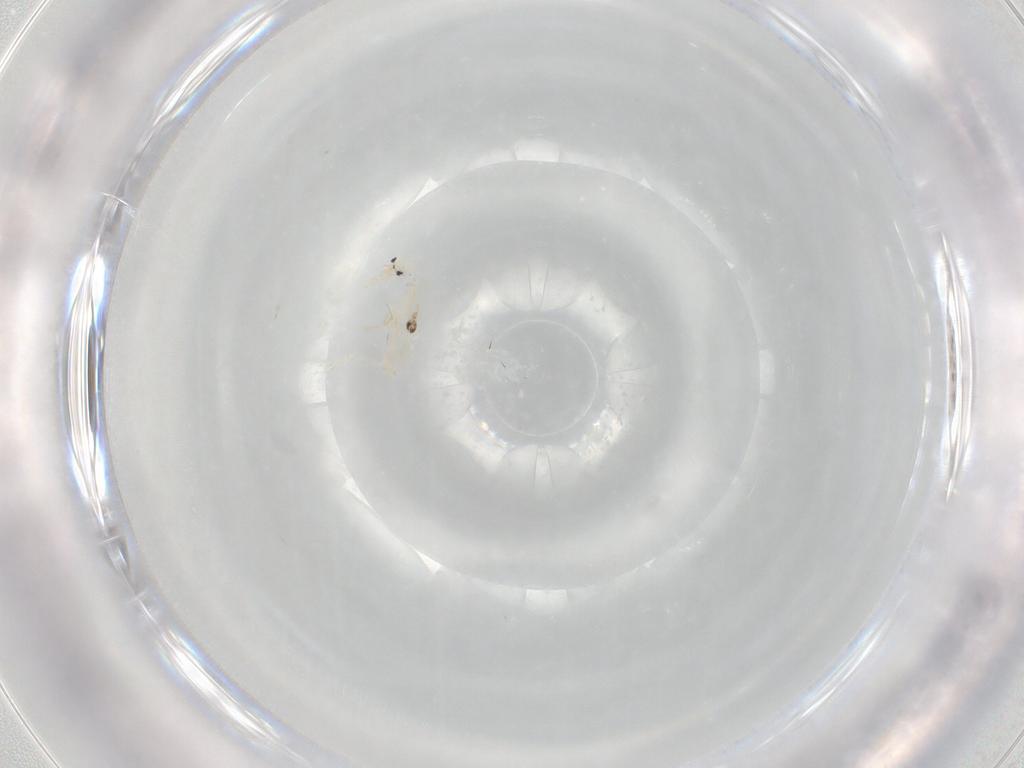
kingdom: Animalia
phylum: Arthropoda
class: Collembola
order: Entomobryomorpha
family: Entomobryidae
